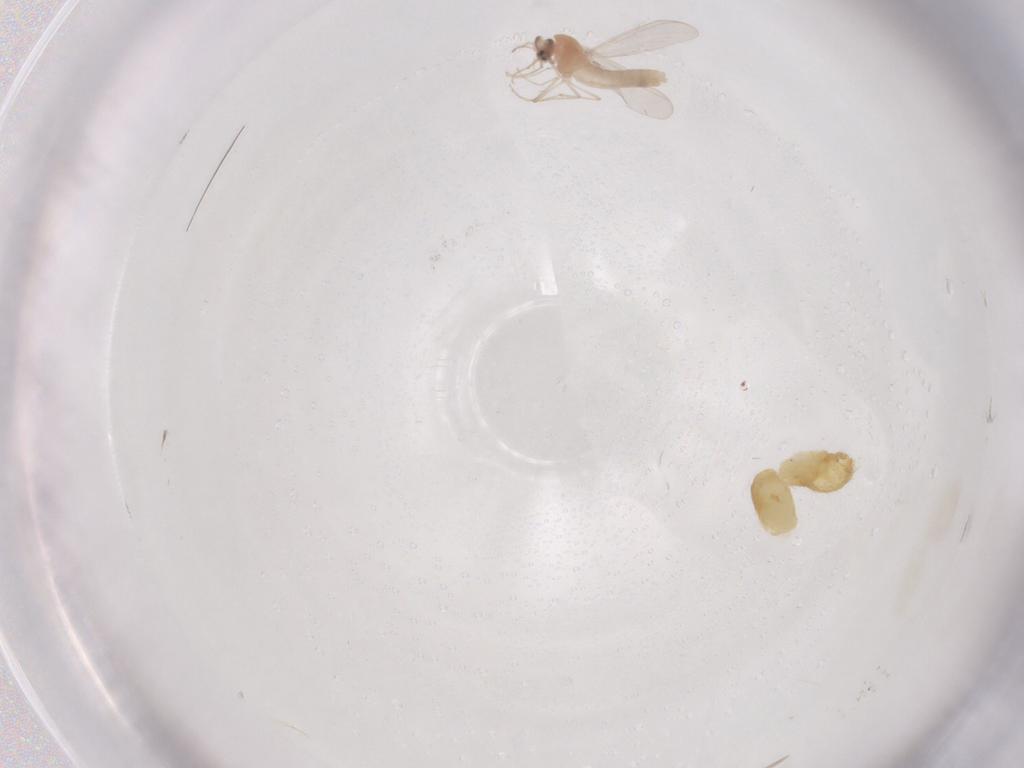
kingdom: Animalia
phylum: Arthropoda
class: Insecta
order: Diptera
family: Chironomidae
